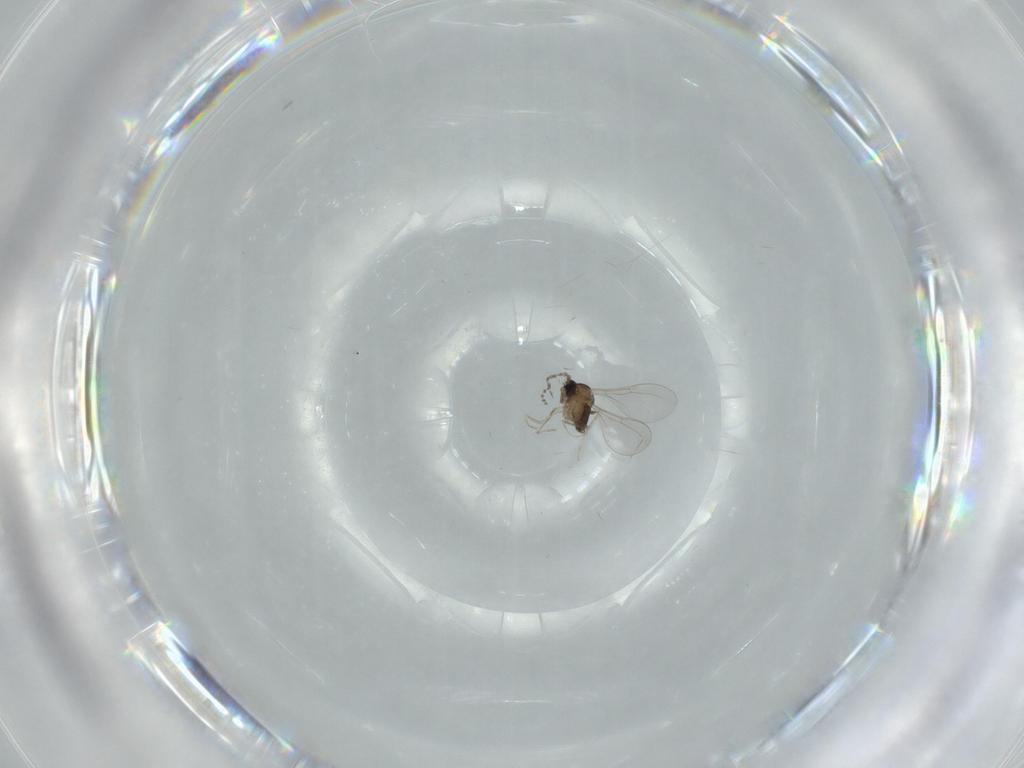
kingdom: Animalia
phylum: Arthropoda
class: Insecta
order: Diptera
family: Cecidomyiidae
